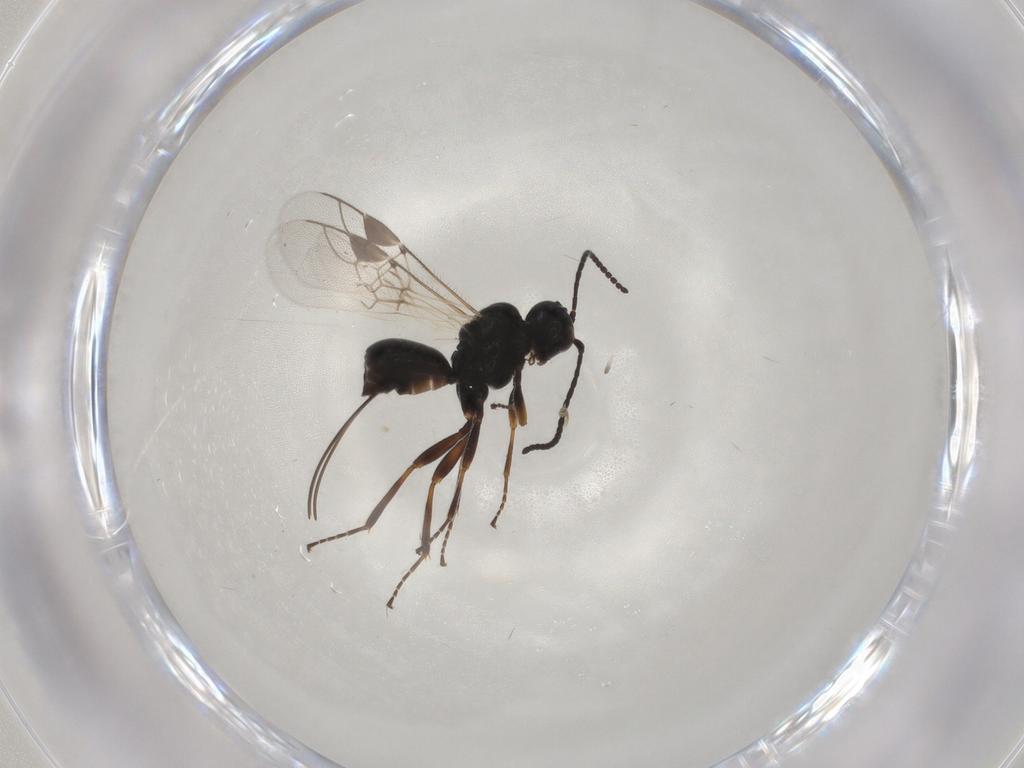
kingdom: Animalia
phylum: Arthropoda
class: Insecta
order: Hymenoptera
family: Braconidae
